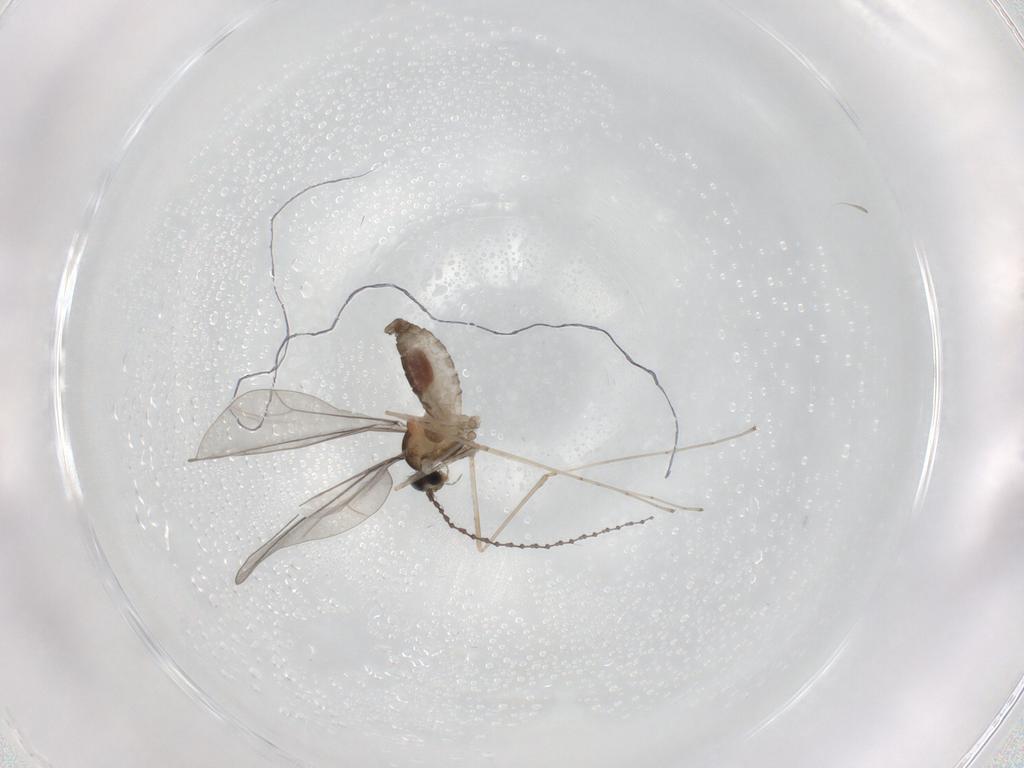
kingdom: Animalia
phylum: Arthropoda
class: Insecta
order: Diptera
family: Cecidomyiidae
